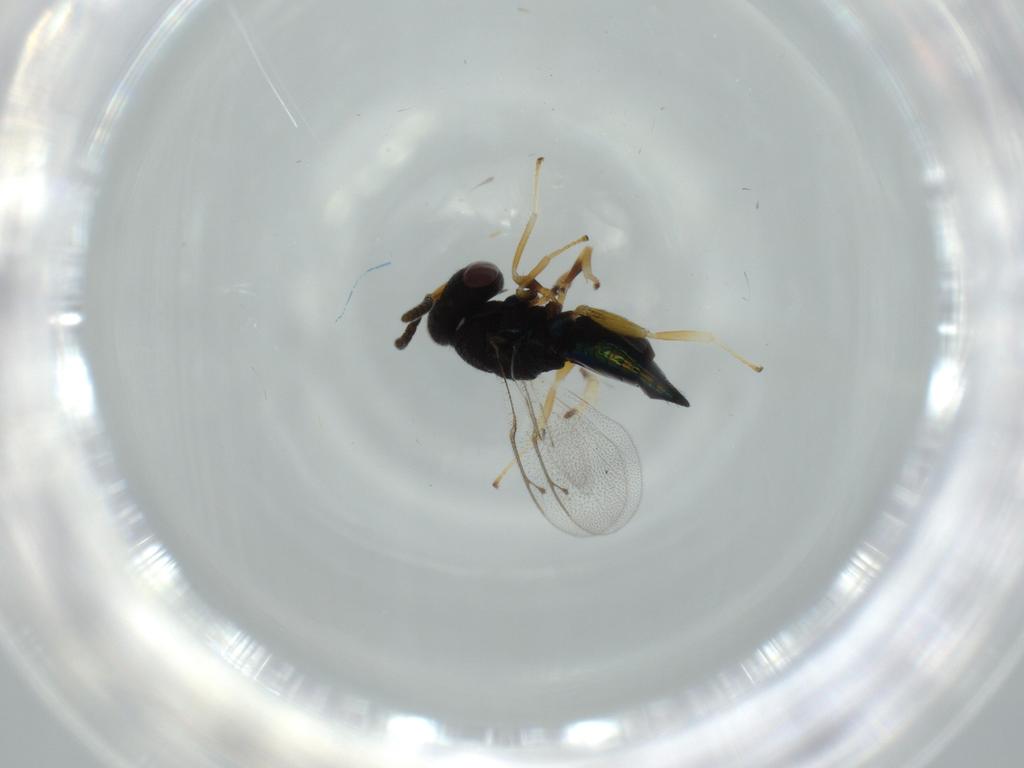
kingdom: Animalia
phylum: Arthropoda
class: Insecta
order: Hymenoptera
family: Pteromalidae
